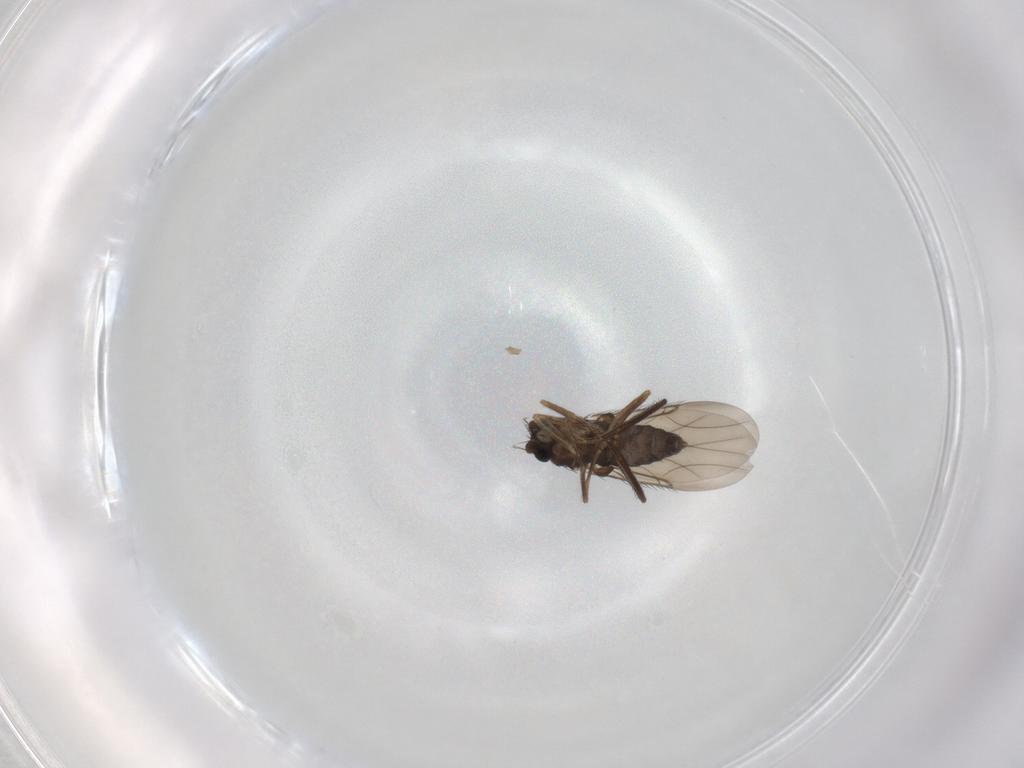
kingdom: Animalia
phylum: Arthropoda
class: Insecta
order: Diptera
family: Phoridae
